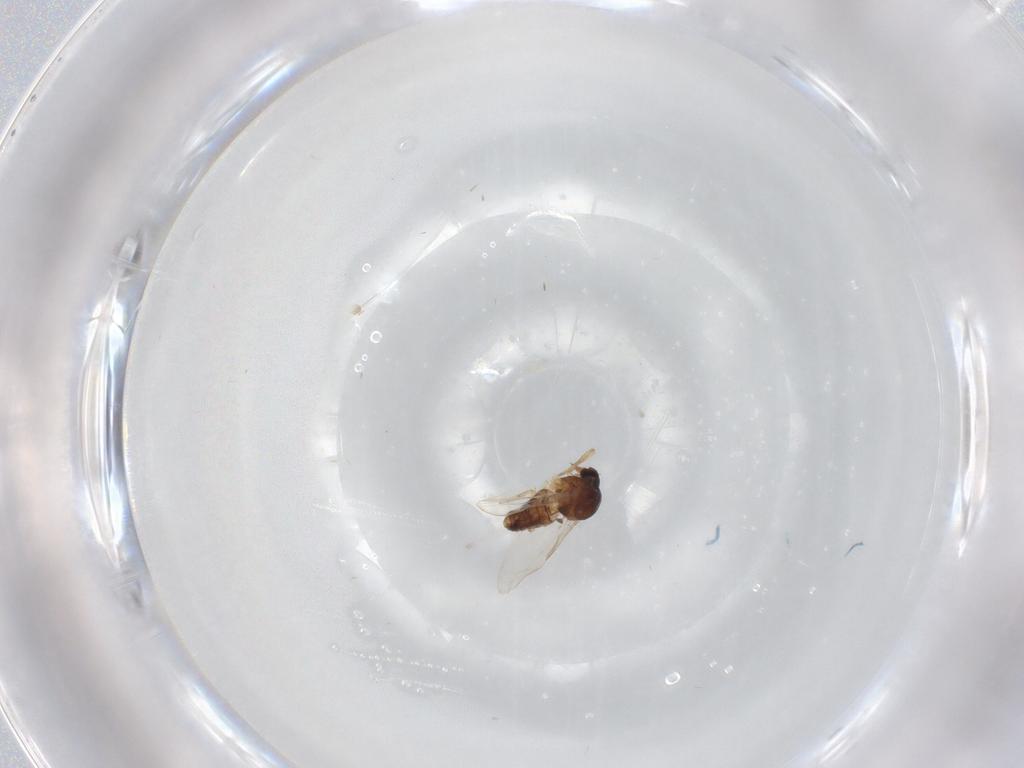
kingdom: Animalia
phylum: Arthropoda
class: Insecta
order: Diptera
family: Ceratopogonidae
